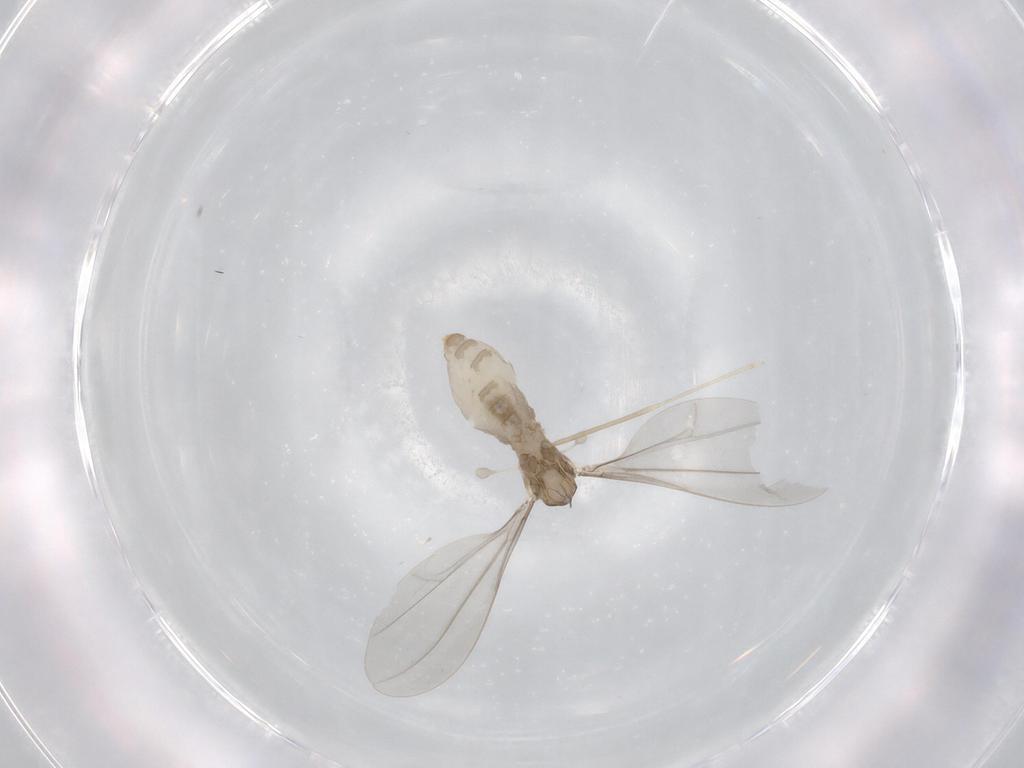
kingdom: Animalia
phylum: Arthropoda
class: Insecta
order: Diptera
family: Cecidomyiidae
